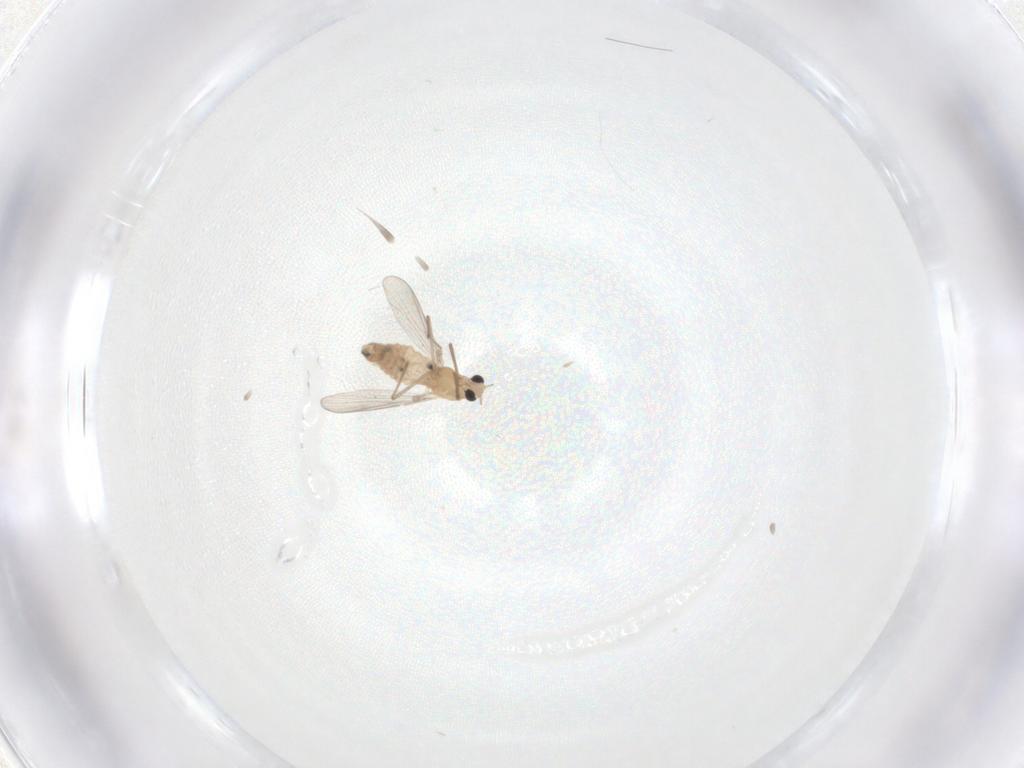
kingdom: Animalia
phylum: Arthropoda
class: Insecta
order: Diptera
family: Chironomidae
